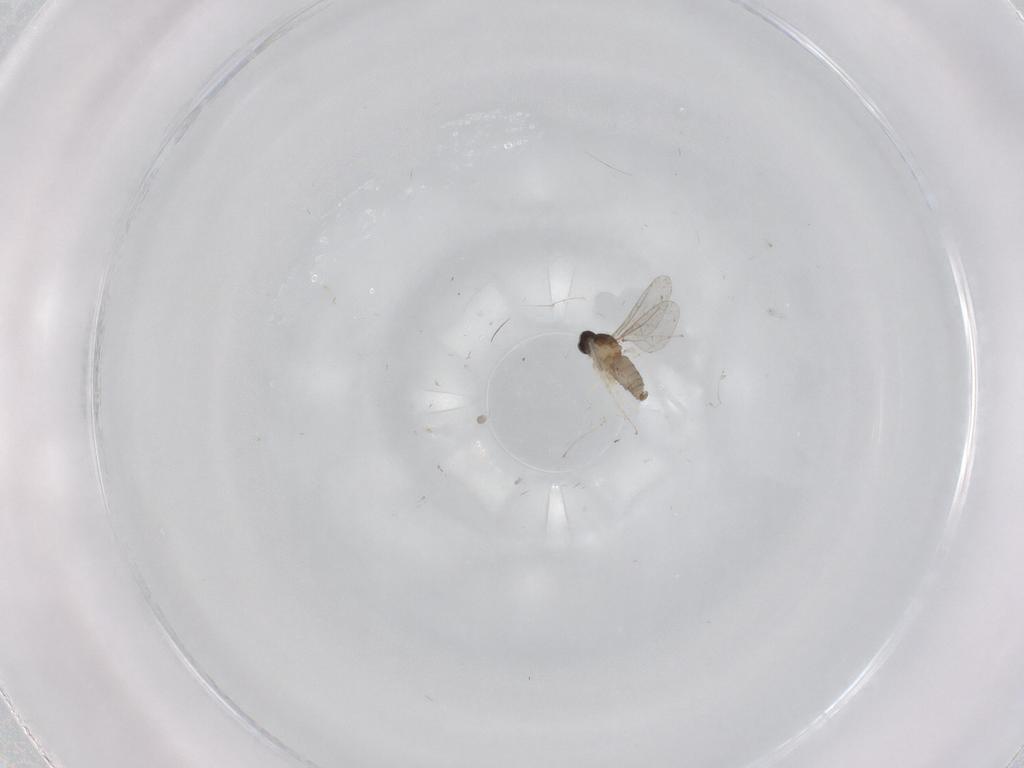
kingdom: Animalia
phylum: Arthropoda
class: Insecta
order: Diptera
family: Cecidomyiidae
